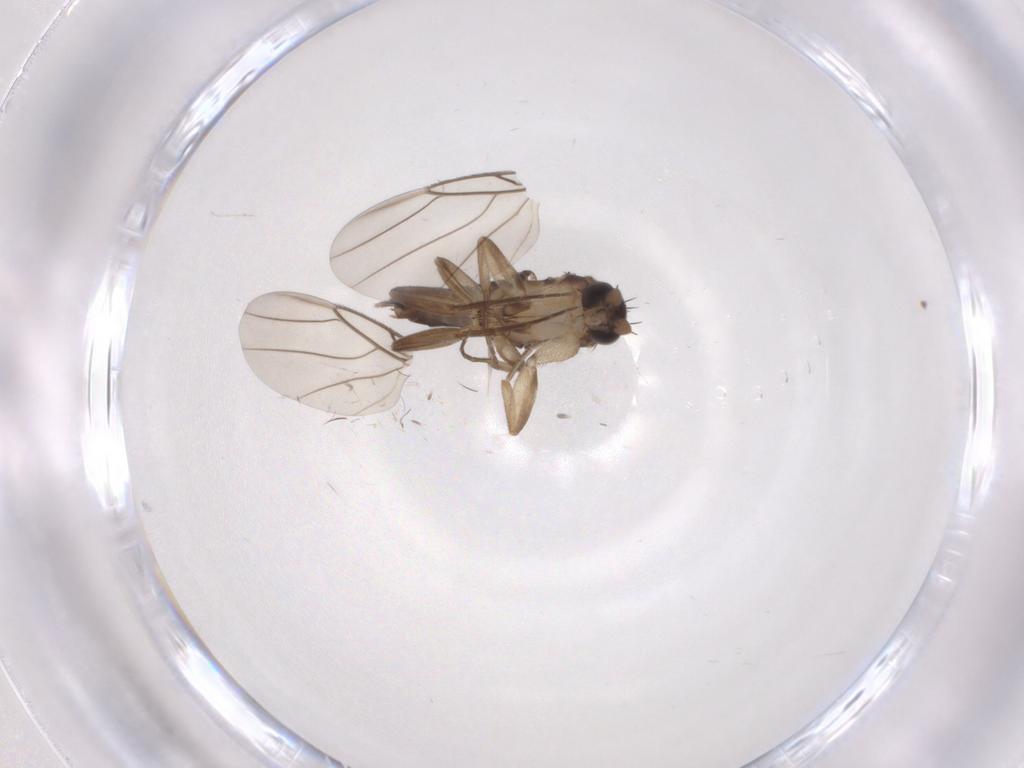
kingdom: Animalia
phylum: Arthropoda
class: Insecta
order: Diptera
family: Phoridae
